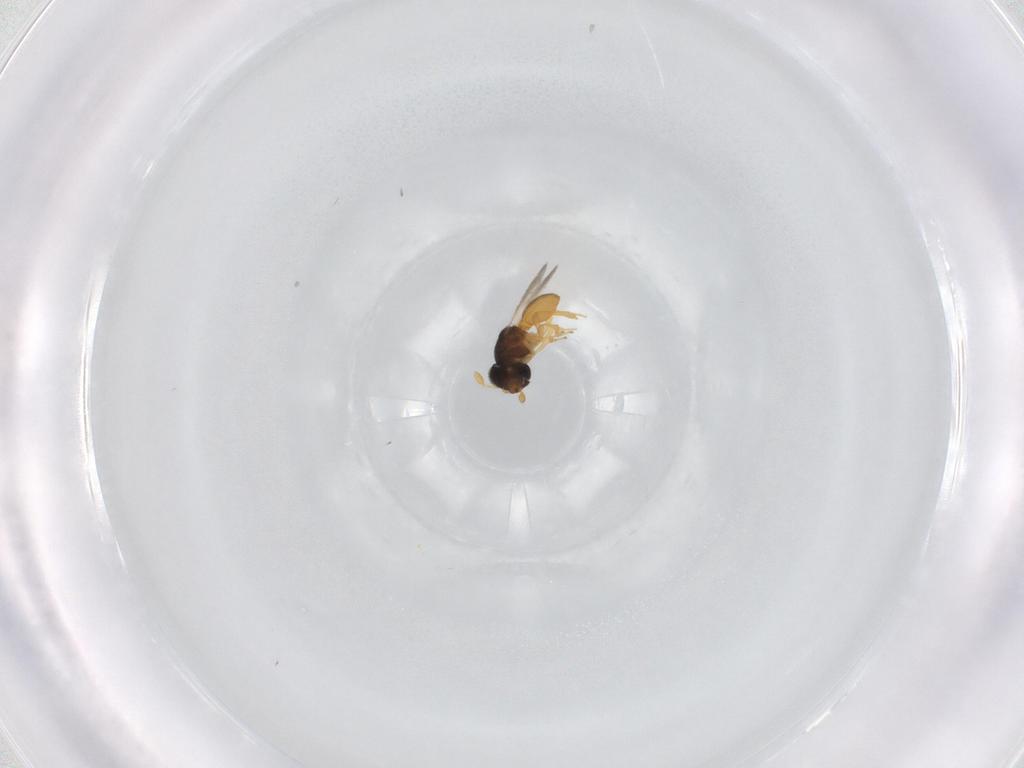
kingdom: Animalia
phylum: Arthropoda
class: Insecta
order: Hymenoptera
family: Scelionidae
